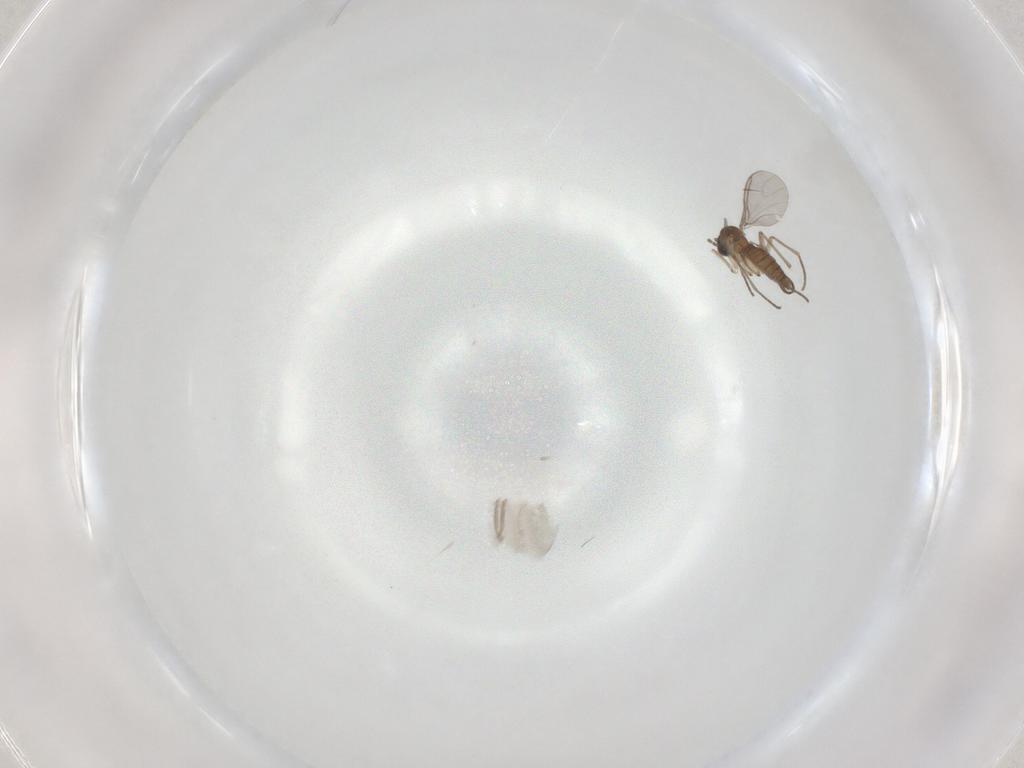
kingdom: Animalia
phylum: Arthropoda
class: Insecta
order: Diptera
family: Sciaridae
